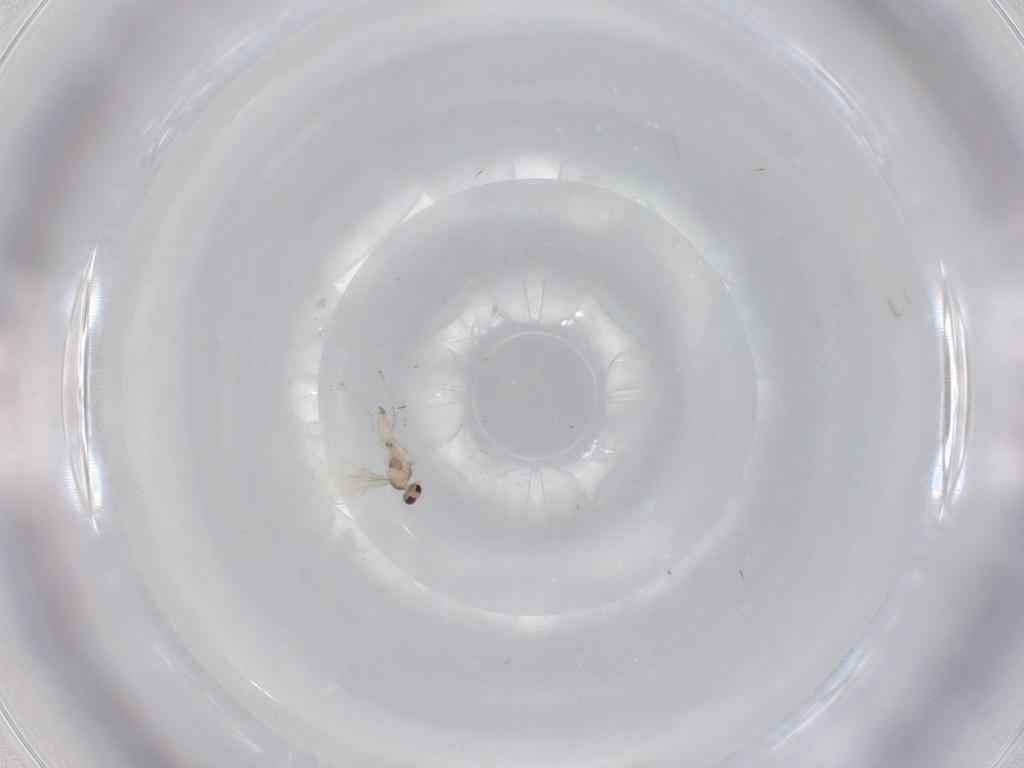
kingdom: Animalia
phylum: Arthropoda
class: Insecta
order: Diptera
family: Cecidomyiidae
